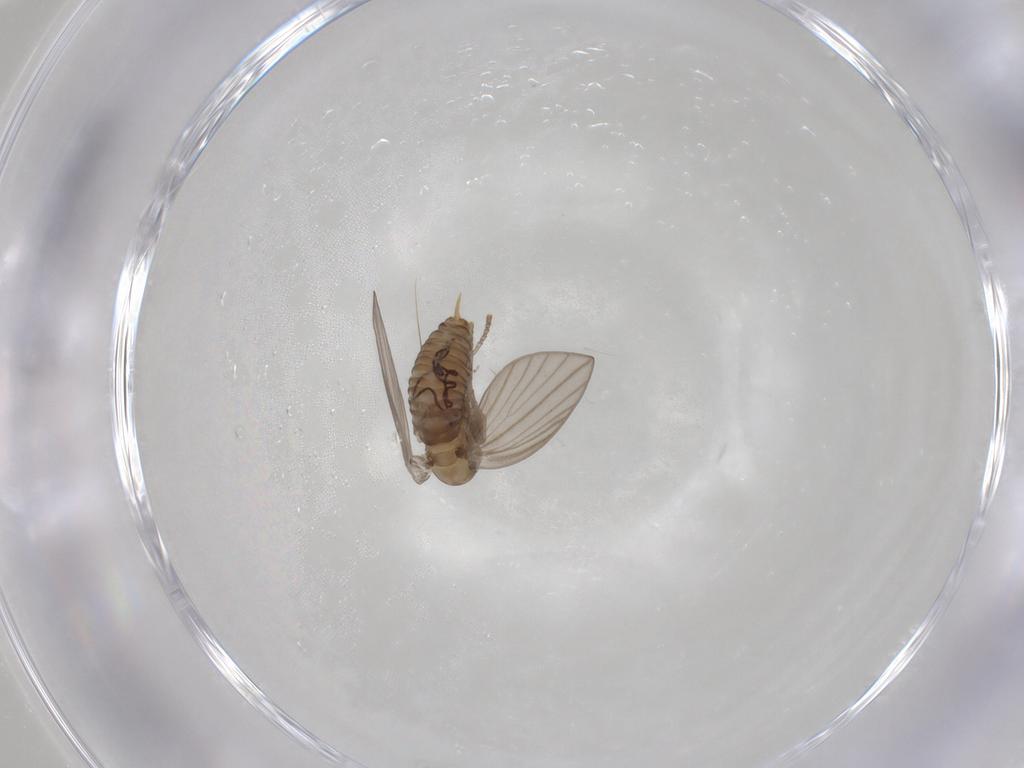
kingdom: Animalia
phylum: Arthropoda
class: Insecta
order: Diptera
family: Psychodidae
